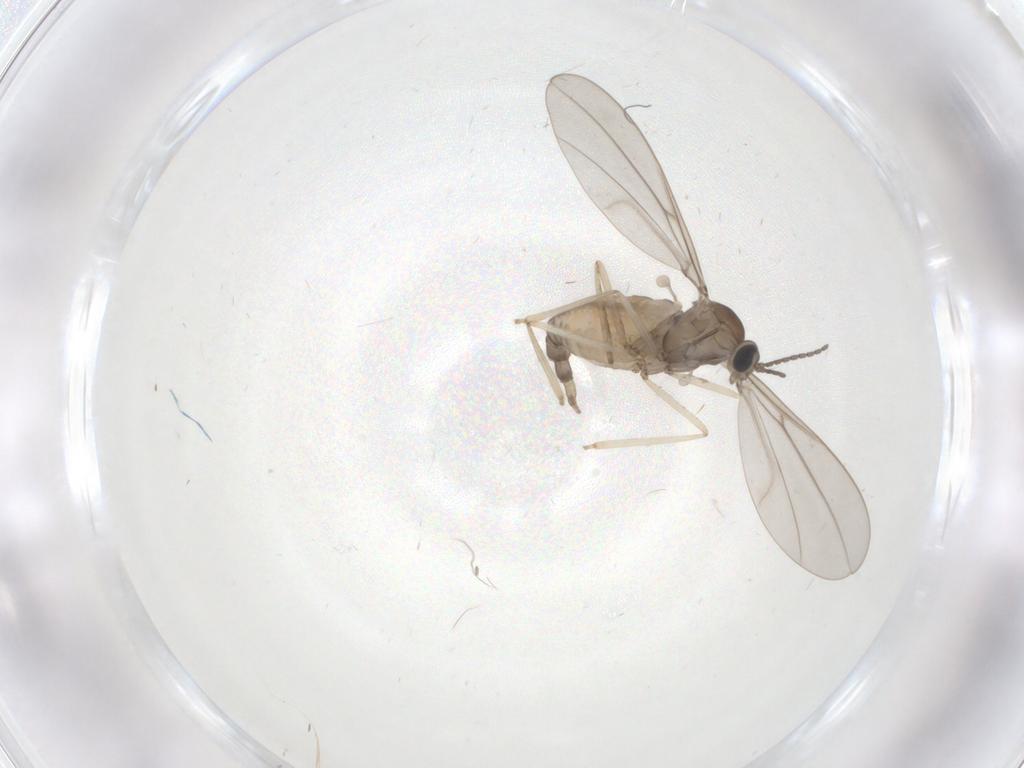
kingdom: Animalia
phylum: Arthropoda
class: Insecta
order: Diptera
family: Cecidomyiidae
